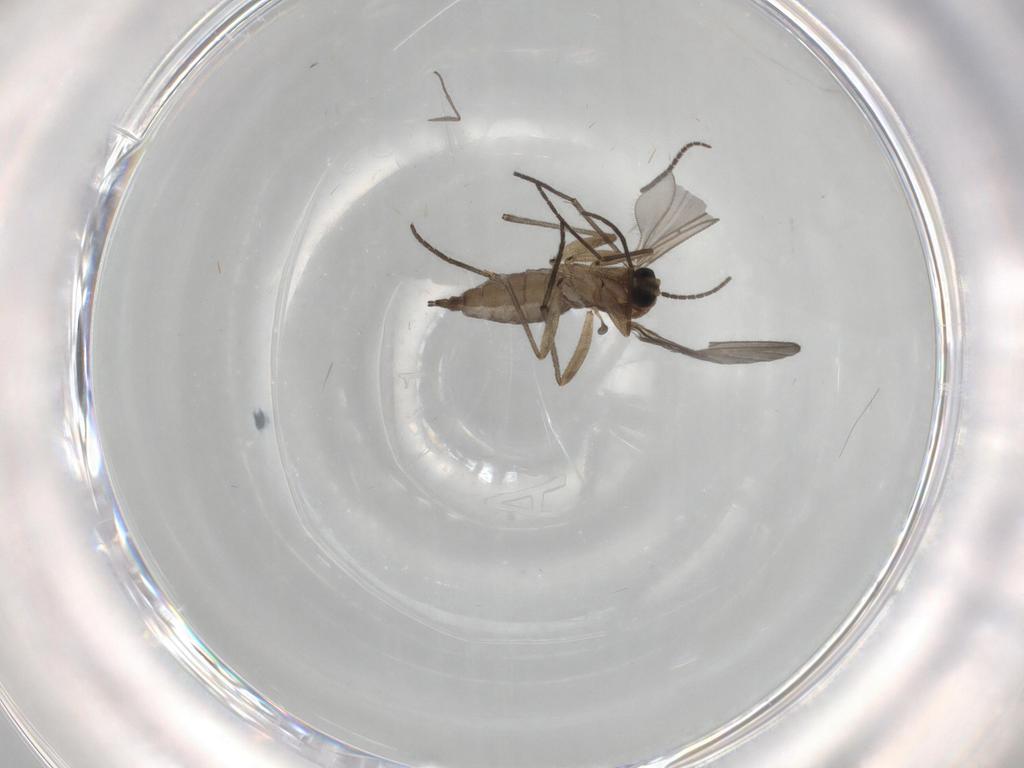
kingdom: Animalia
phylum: Arthropoda
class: Insecta
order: Diptera
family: Sciaridae
